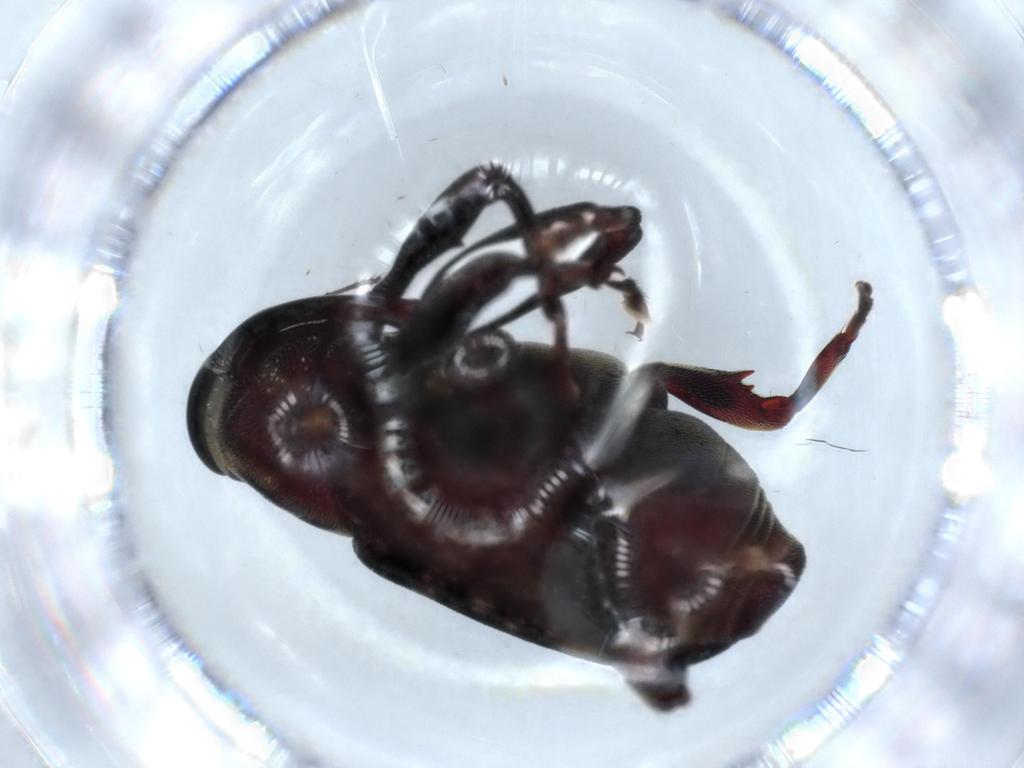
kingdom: Animalia
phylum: Arthropoda
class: Insecta
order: Coleoptera
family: Curculionidae
